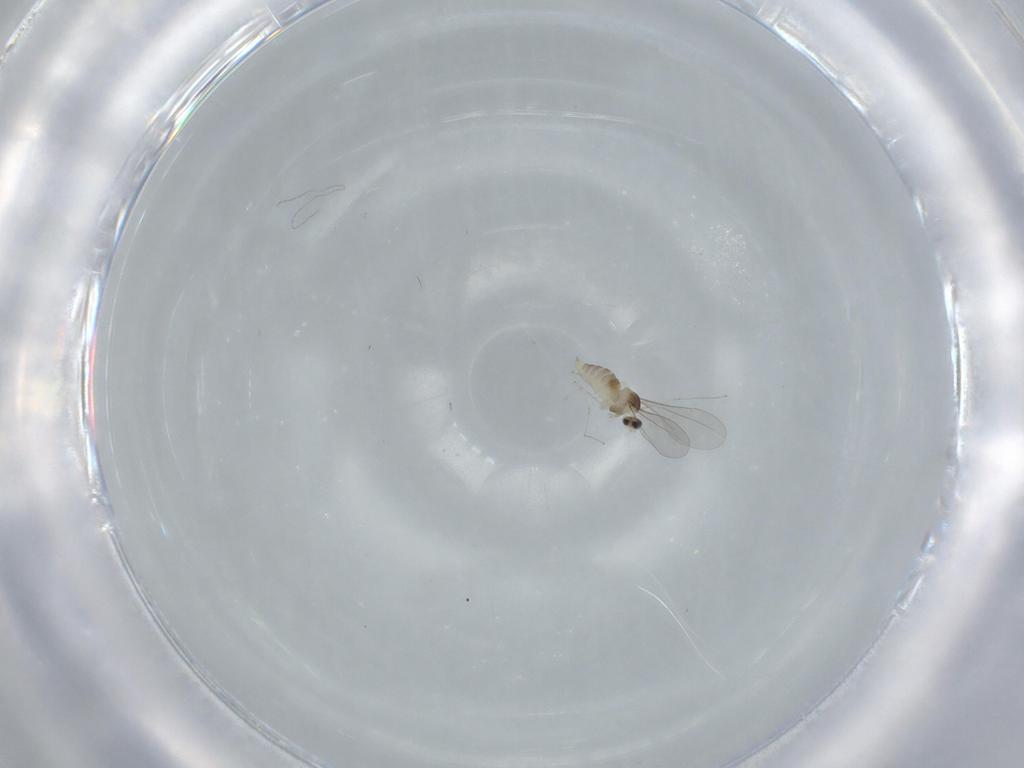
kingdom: Animalia
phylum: Arthropoda
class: Insecta
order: Diptera
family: Cecidomyiidae
